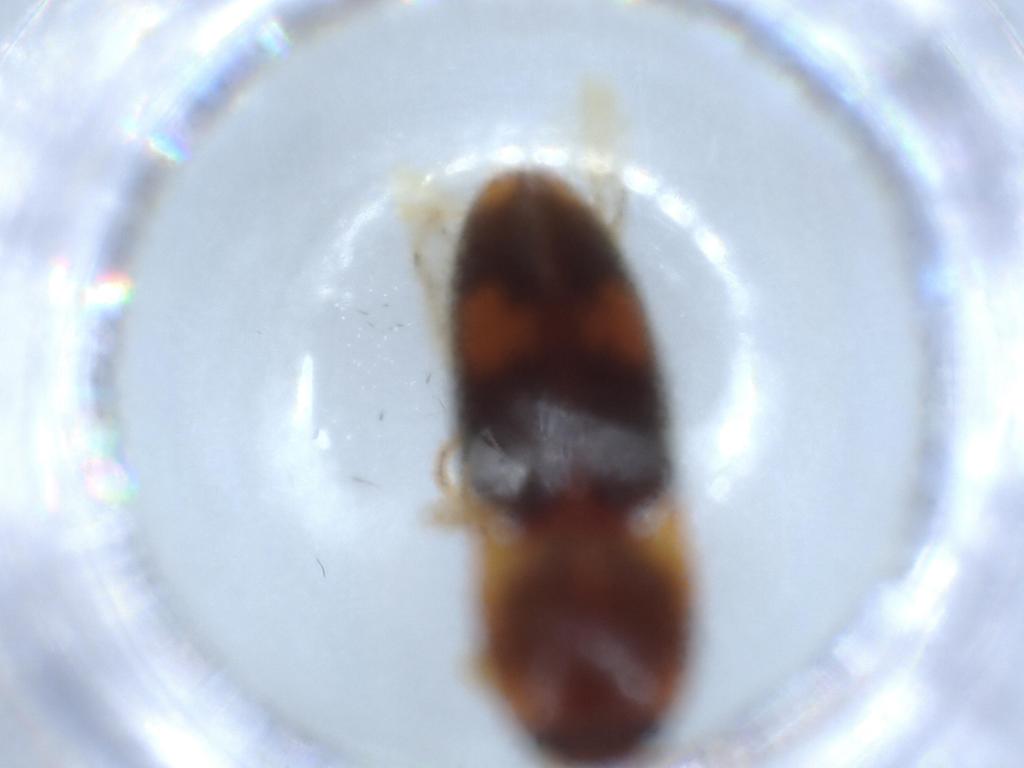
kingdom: Animalia
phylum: Arthropoda
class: Insecta
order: Coleoptera
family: Elateridae
